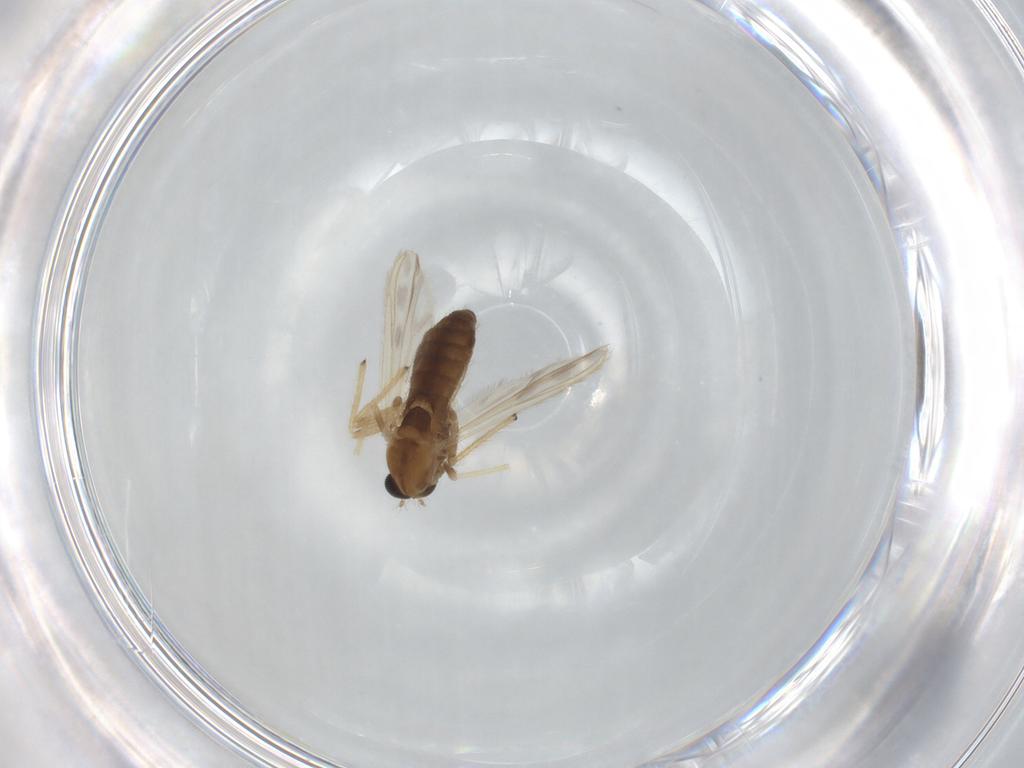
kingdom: Animalia
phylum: Arthropoda
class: Insecta
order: Diptera
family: Chironomidae
